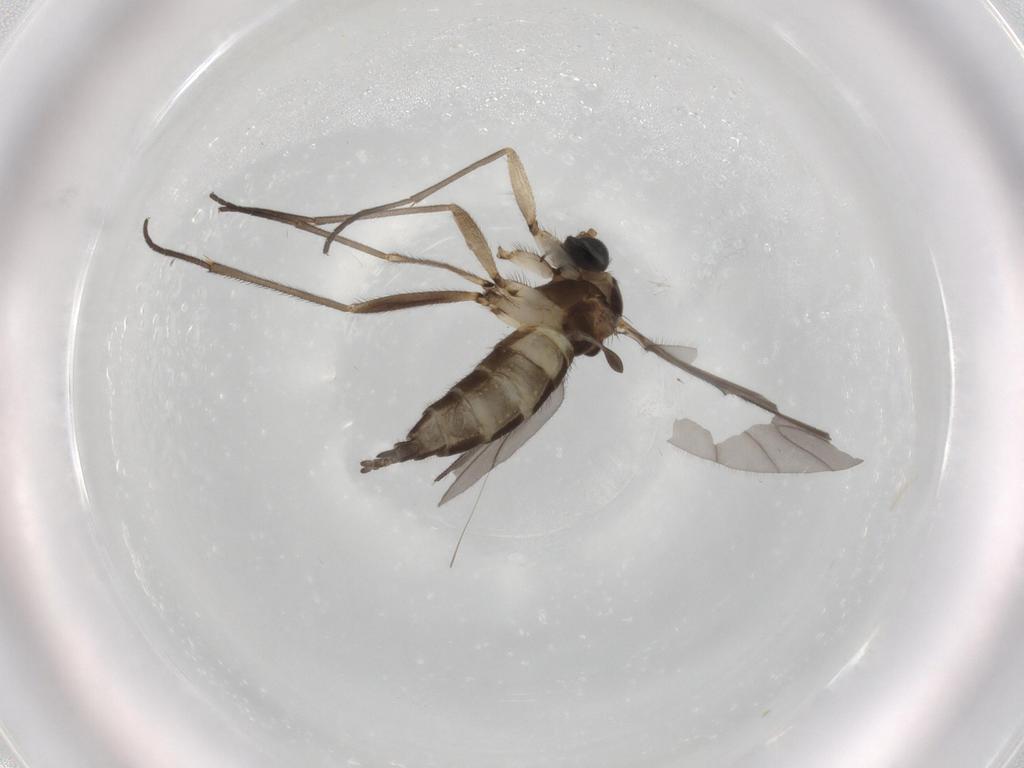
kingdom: Animalia
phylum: Arthropoda
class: Insecta
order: Diptera
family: Sciaridae
